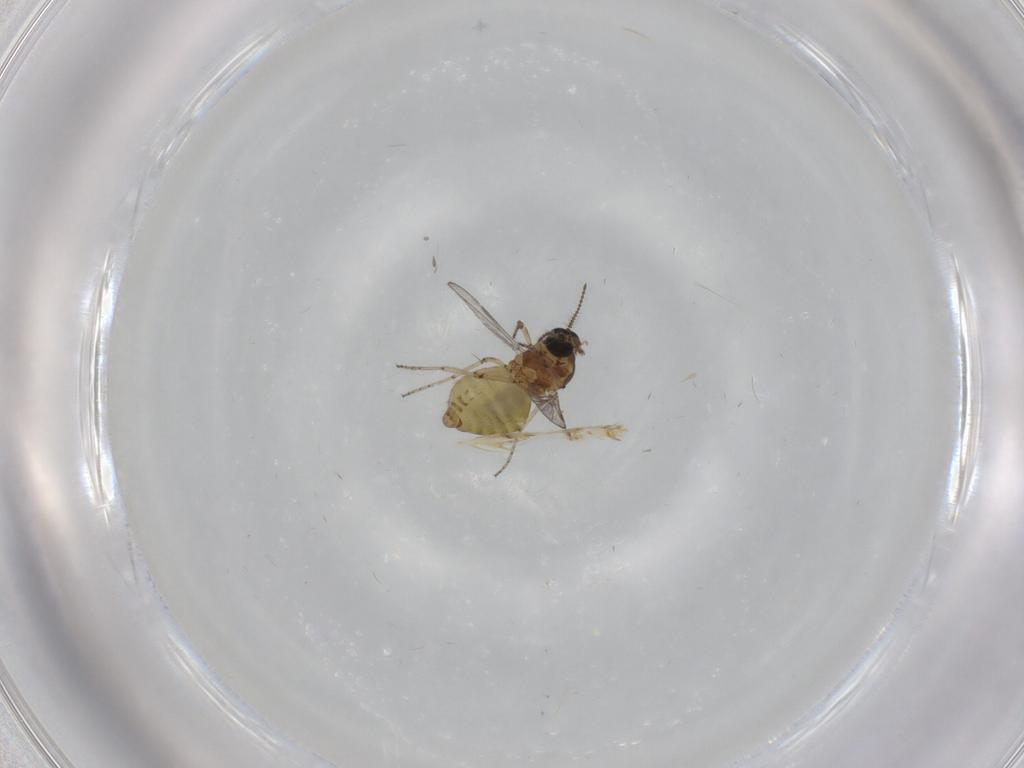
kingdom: Animalia
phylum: Arthropoda
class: Insecta
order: Diptera
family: Ceratopogonidae
